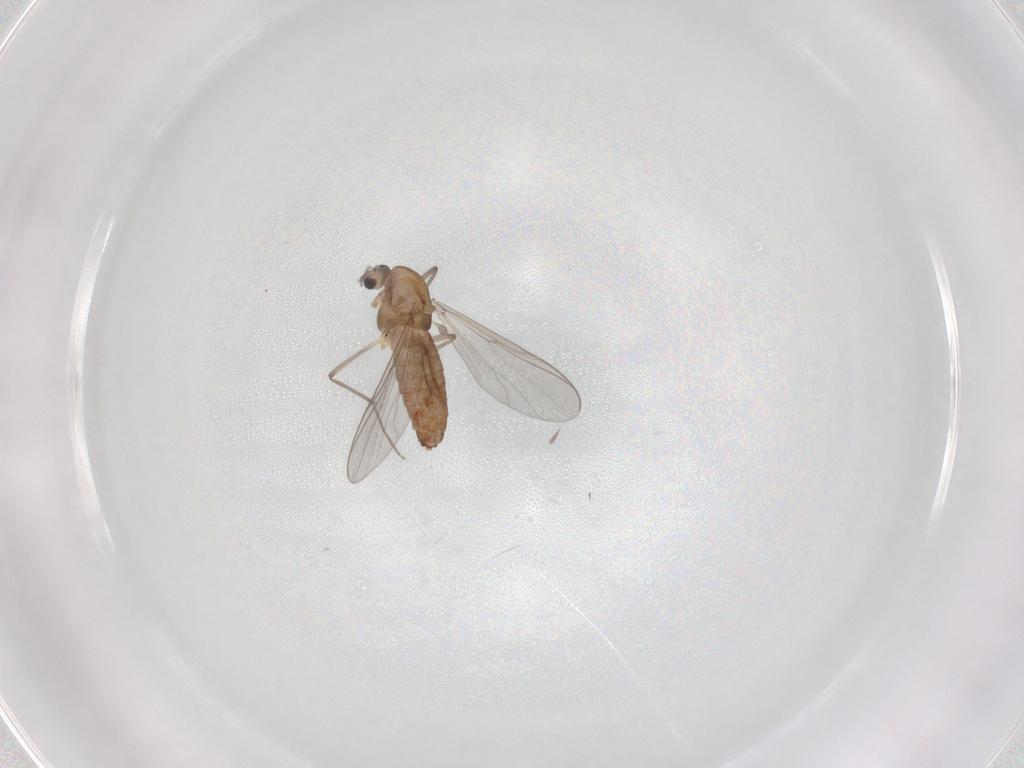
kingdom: Animalia
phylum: Arthropoda
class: Insecta
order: Diptera
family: Chironomidae
